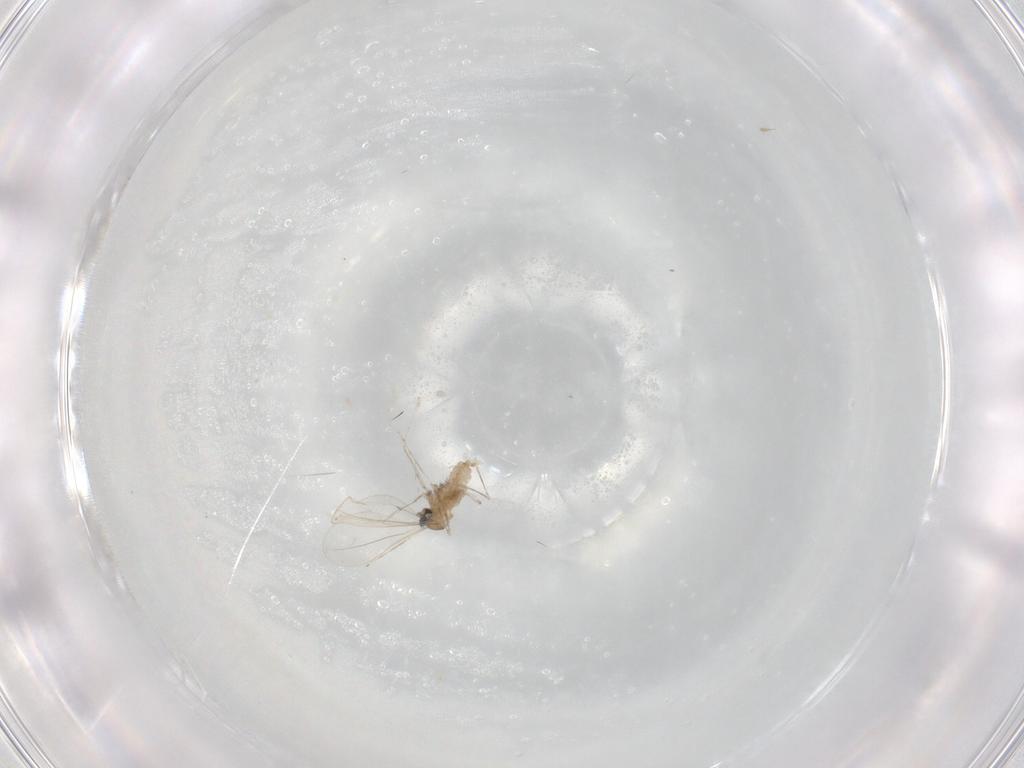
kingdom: Animalia
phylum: Arthropoda
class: Insecta
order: Diptera
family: Cecidomyiidae
